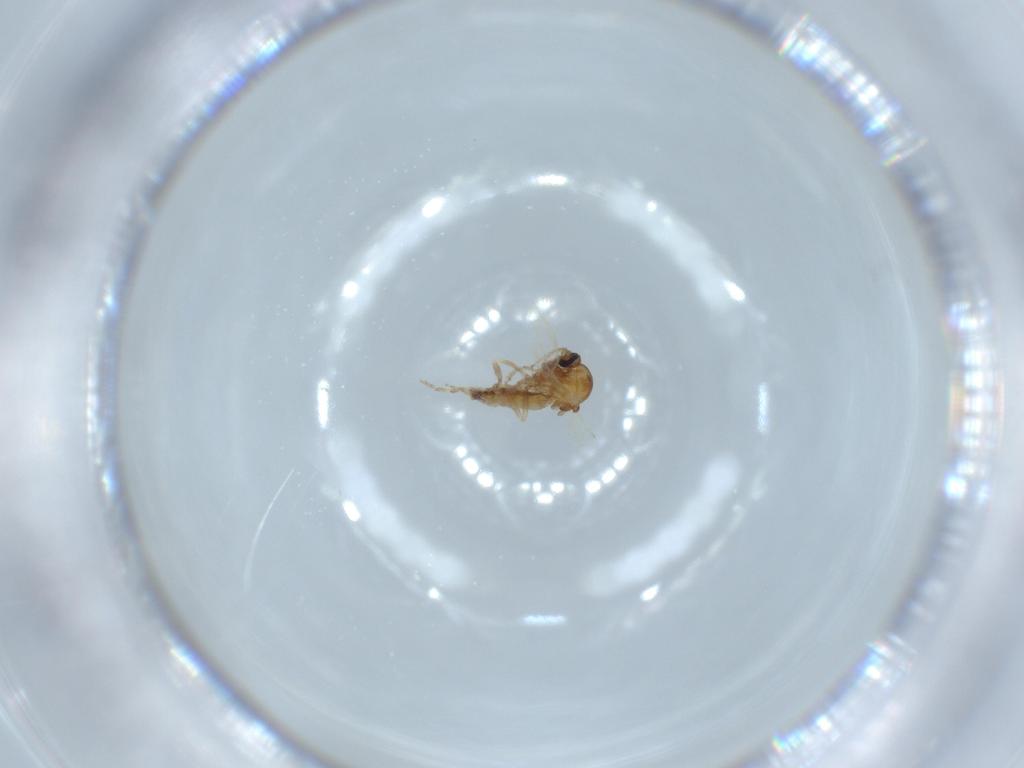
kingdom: Animalia
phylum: Arthropoda
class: Insecta
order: Diptera
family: Ceratopogonidae
